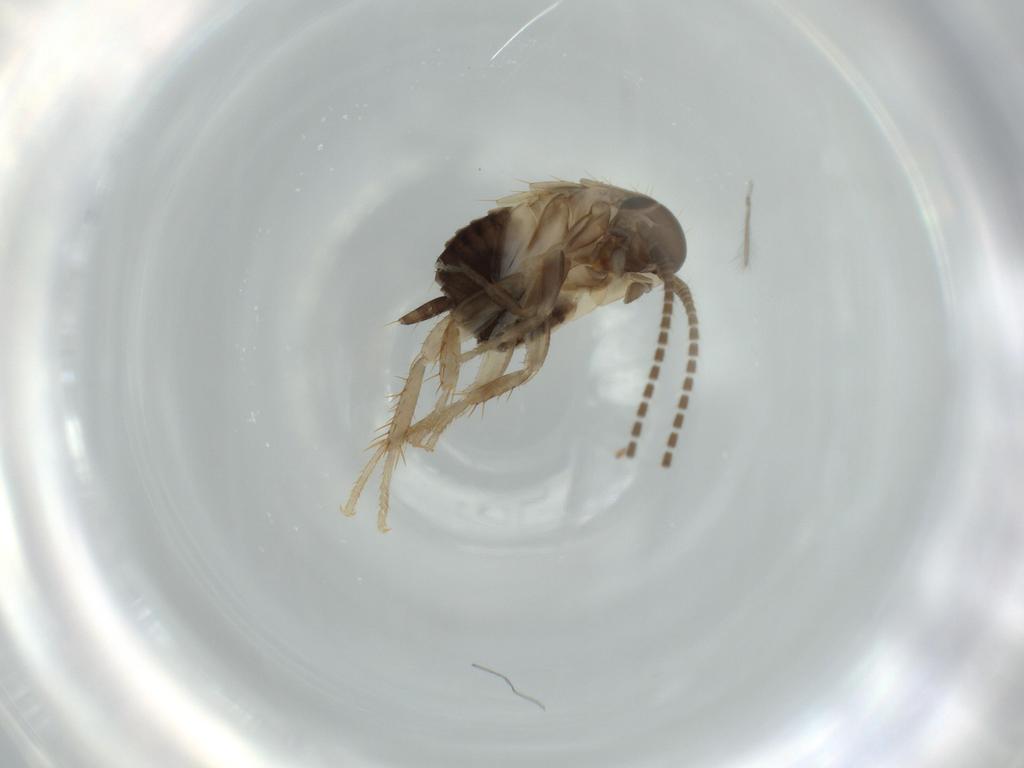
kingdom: Animalia
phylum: Arthropoda
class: Insecta
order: Blattodea
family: Ectobiidae
